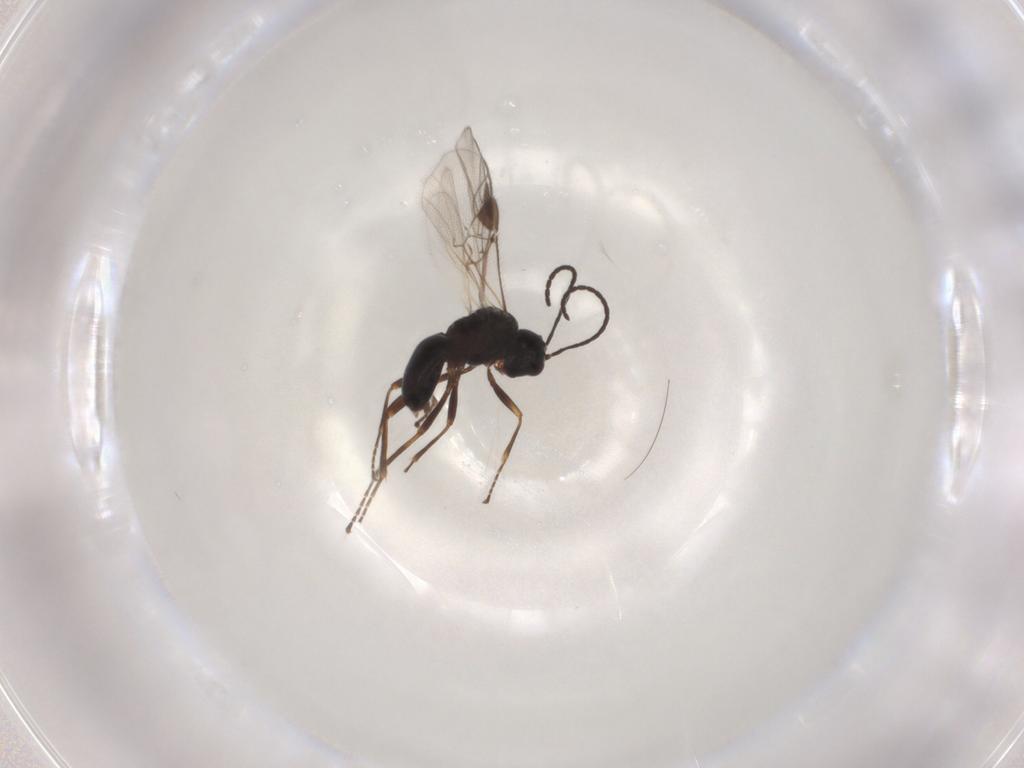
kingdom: Animalia
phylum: Arthropoda
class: Insecta
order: Hymenoptera
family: Braconidae
